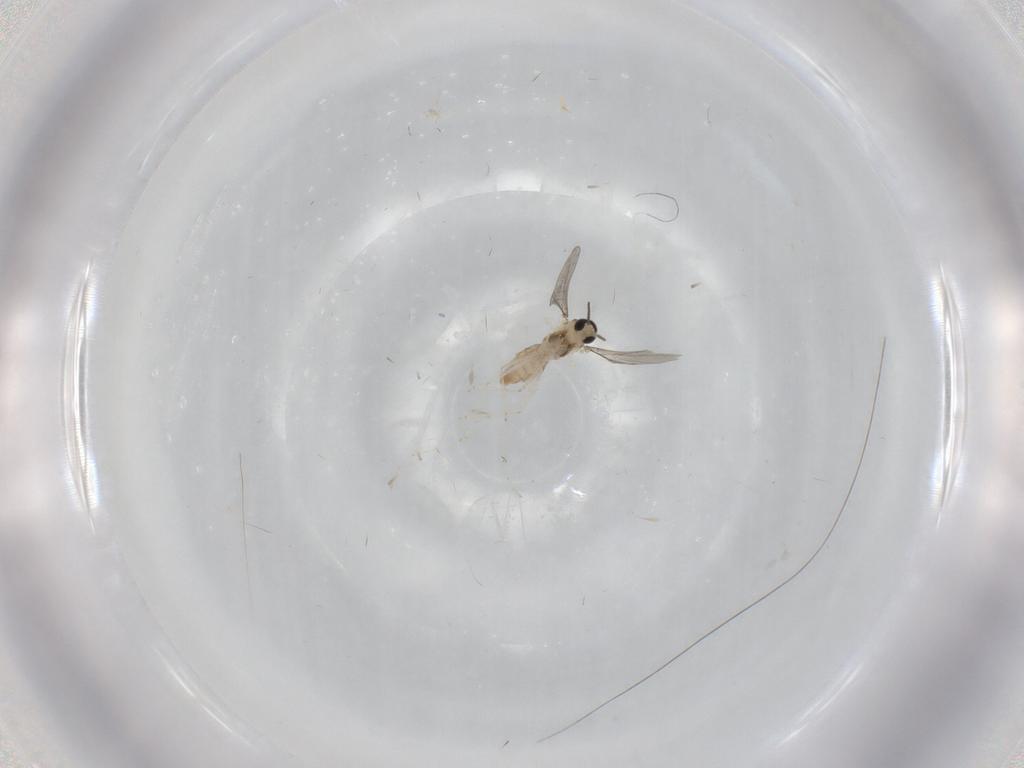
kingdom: Animalia
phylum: Arthropoda
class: Insecta
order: Diptera
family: Cecidomyiidae
